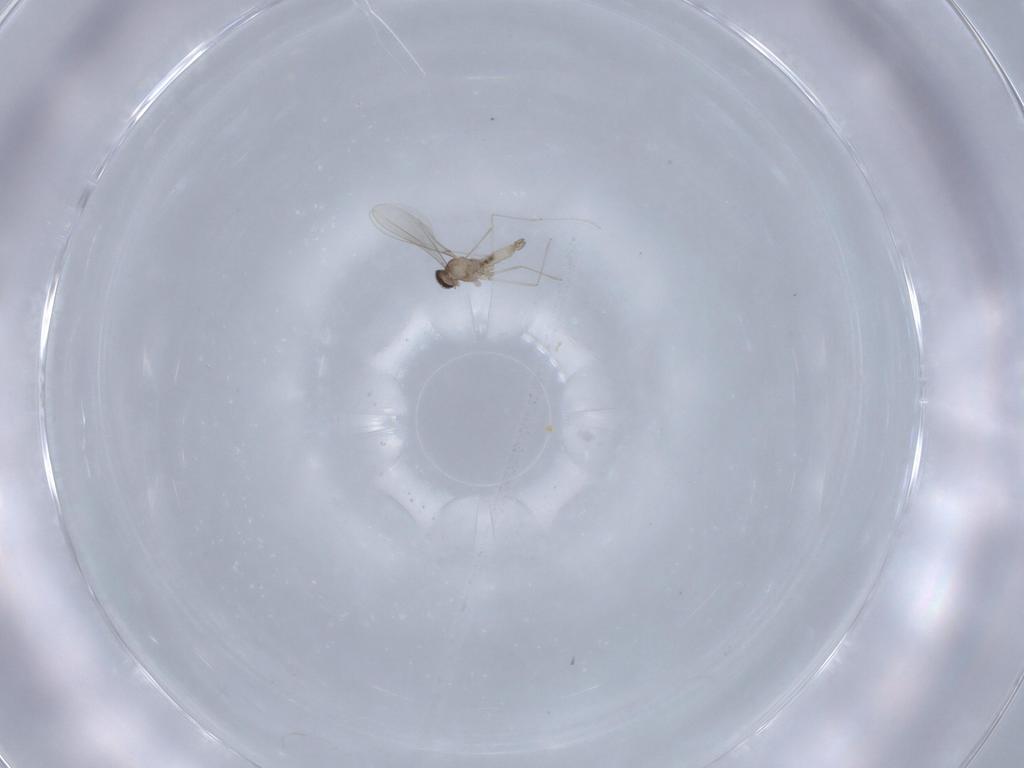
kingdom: Animalia
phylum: Arthropoda
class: Insecta
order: Diptera
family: Cecidomyiidae
